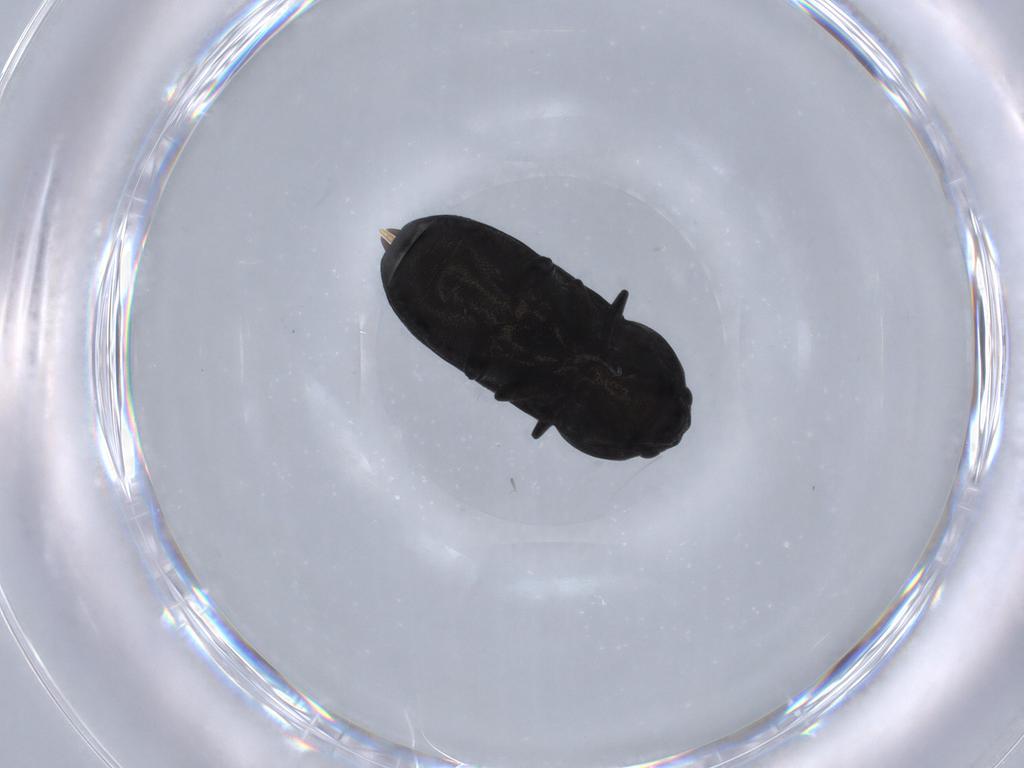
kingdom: Animalia
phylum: Arthropoda
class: Insecta
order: Coleoptera
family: Buprestidae
